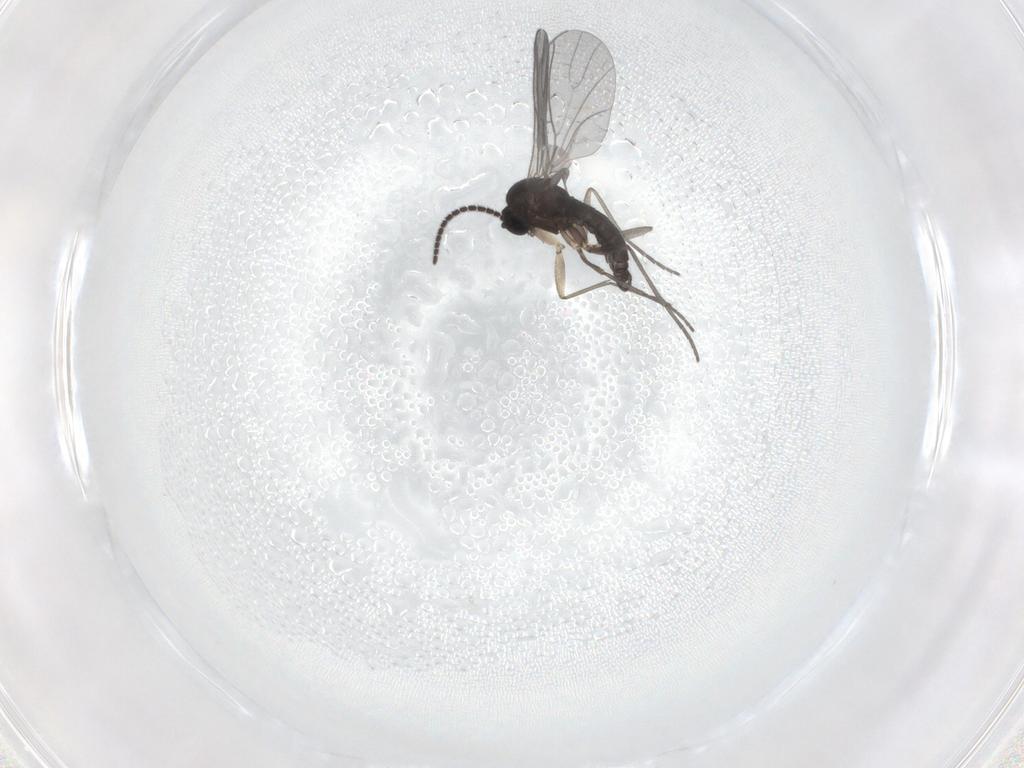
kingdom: Animalia
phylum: Arthropoda
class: Insecta
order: Diptera
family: Sciaridae
